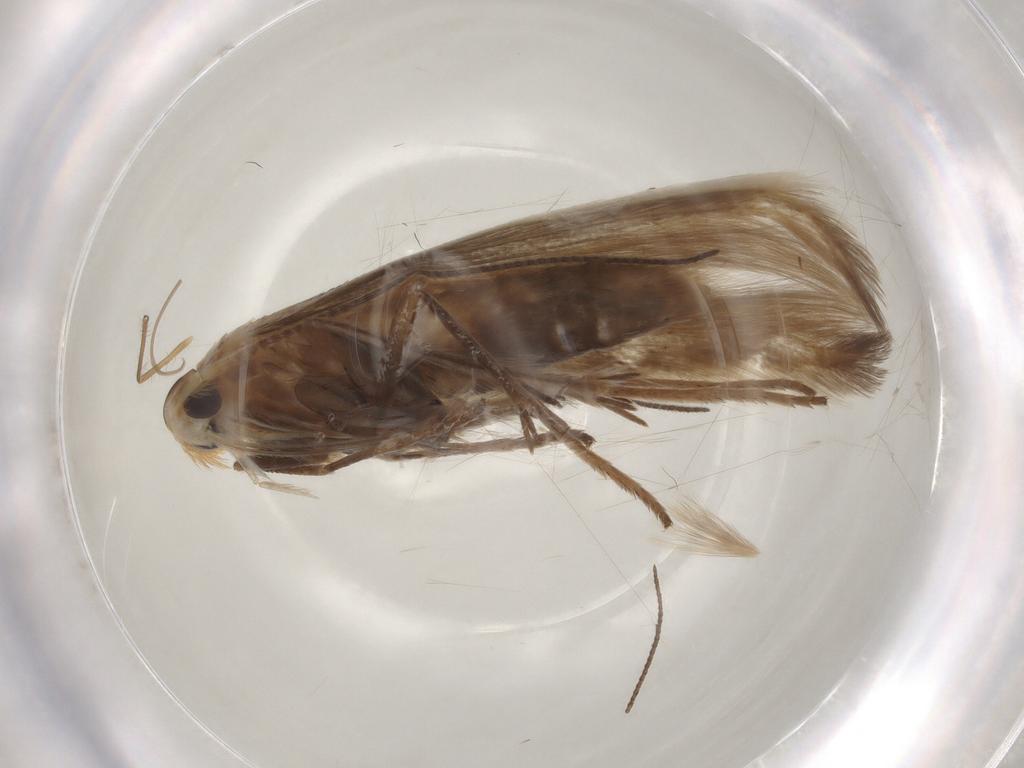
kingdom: Animalia
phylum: Arthropoda
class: Insecta
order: Lepidoptera
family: Coleophoridae
